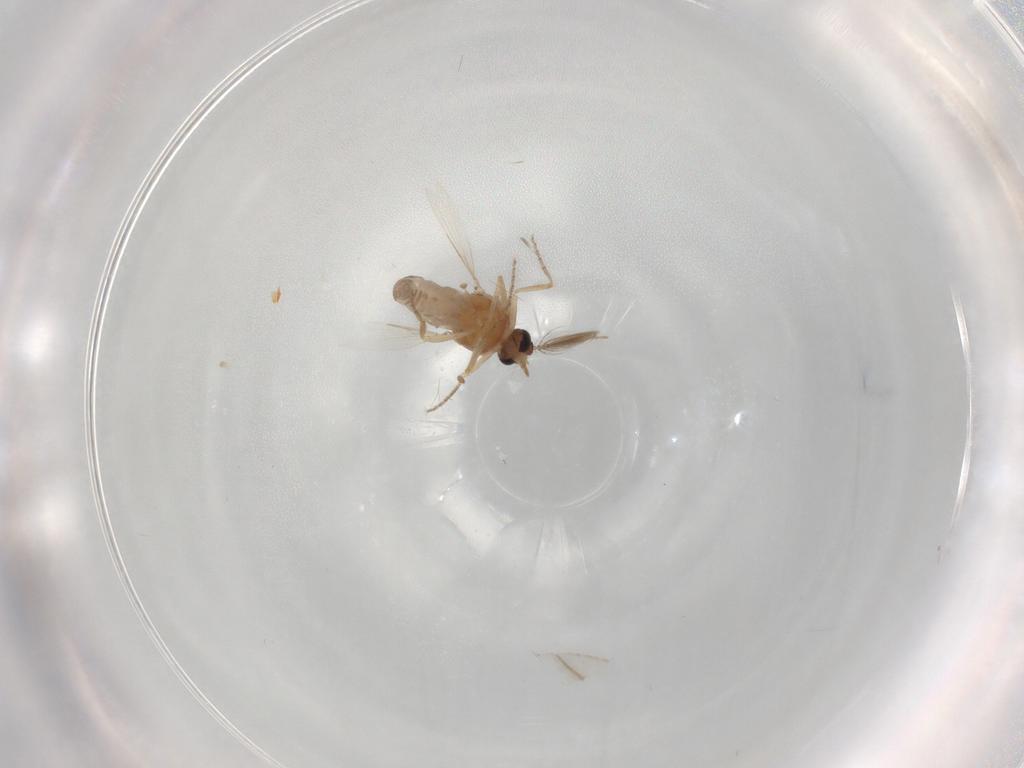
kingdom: Animalia
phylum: Arthropoda
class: Insecta
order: Diptera
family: Ceratopogonidae
